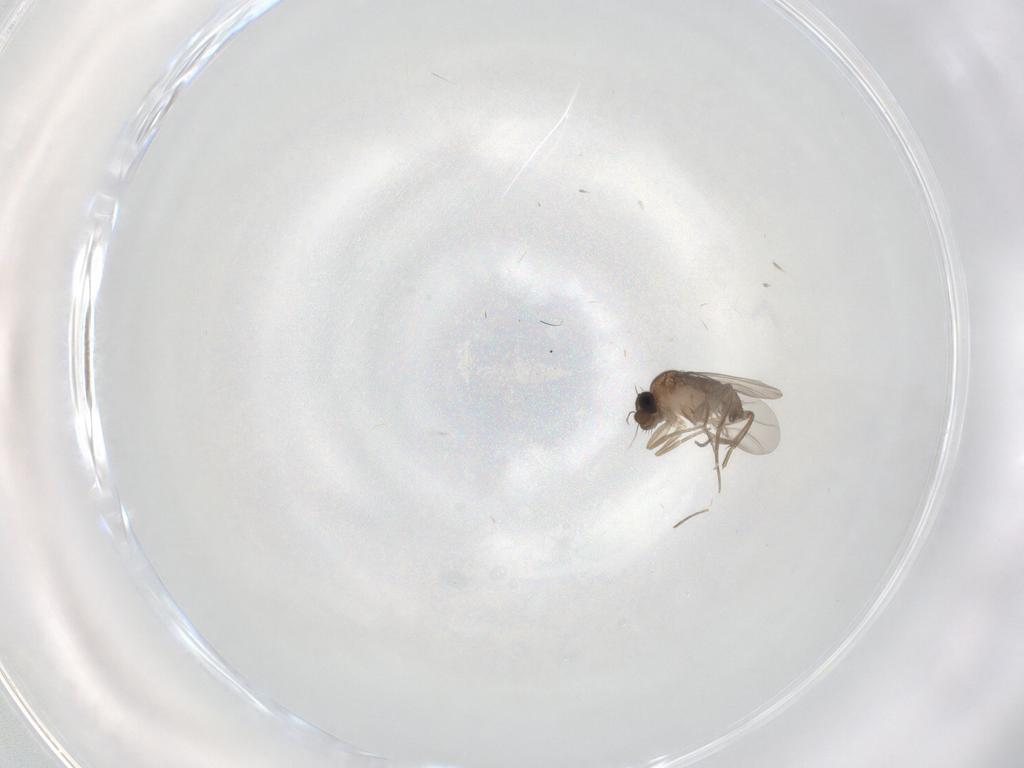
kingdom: Animalia
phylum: Arthropoda
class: Insecta
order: Diptera
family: Phoridae
